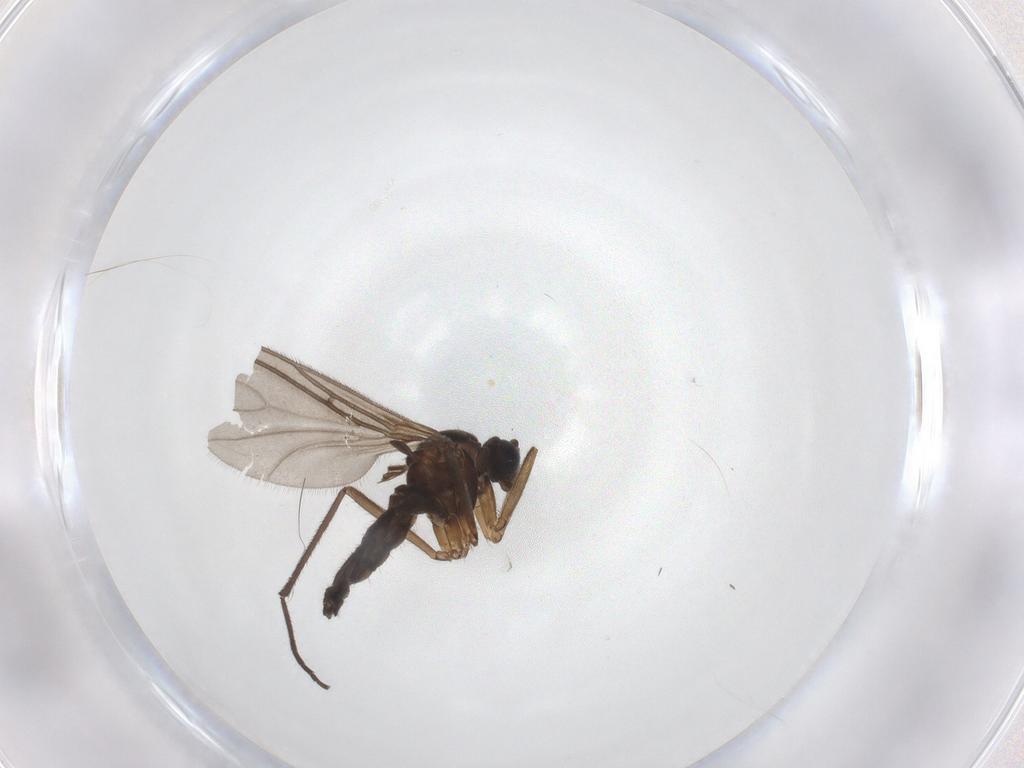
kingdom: Animalia
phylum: Arthropoda
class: Insecta
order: Diptera
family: Sciaridae
